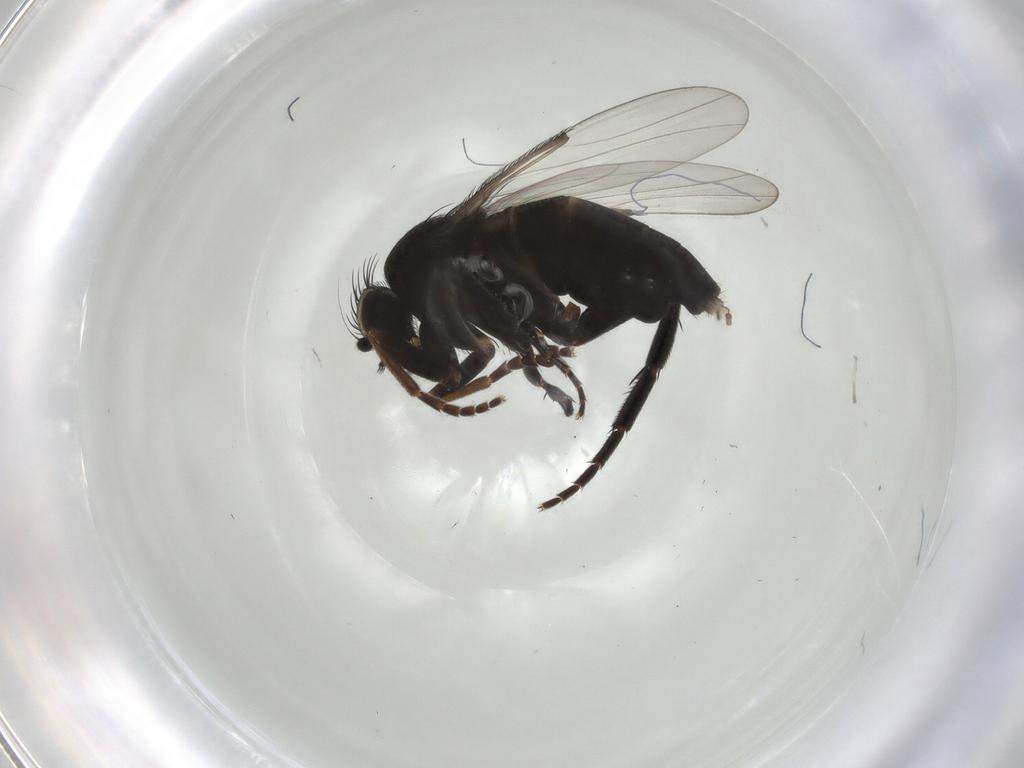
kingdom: Animalia
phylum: Arthropoda
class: Insecta
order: Diptera
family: Phoridae
